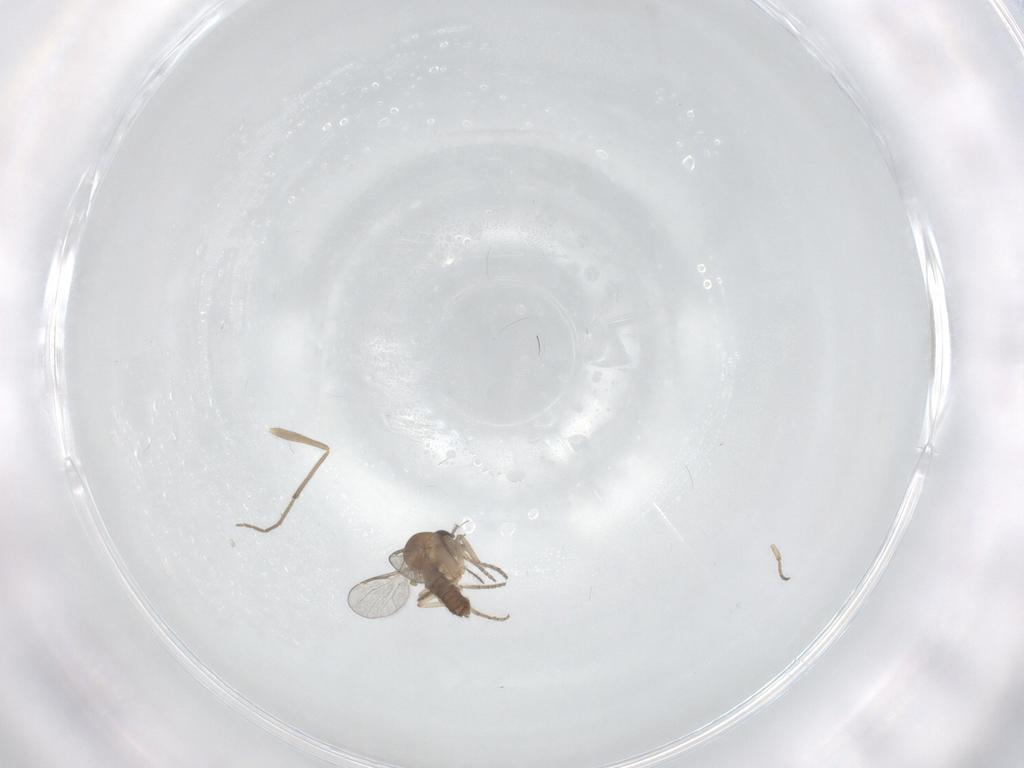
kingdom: Animalia
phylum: Arthropoda
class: Insecta
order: Diptera
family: Chironomidae
